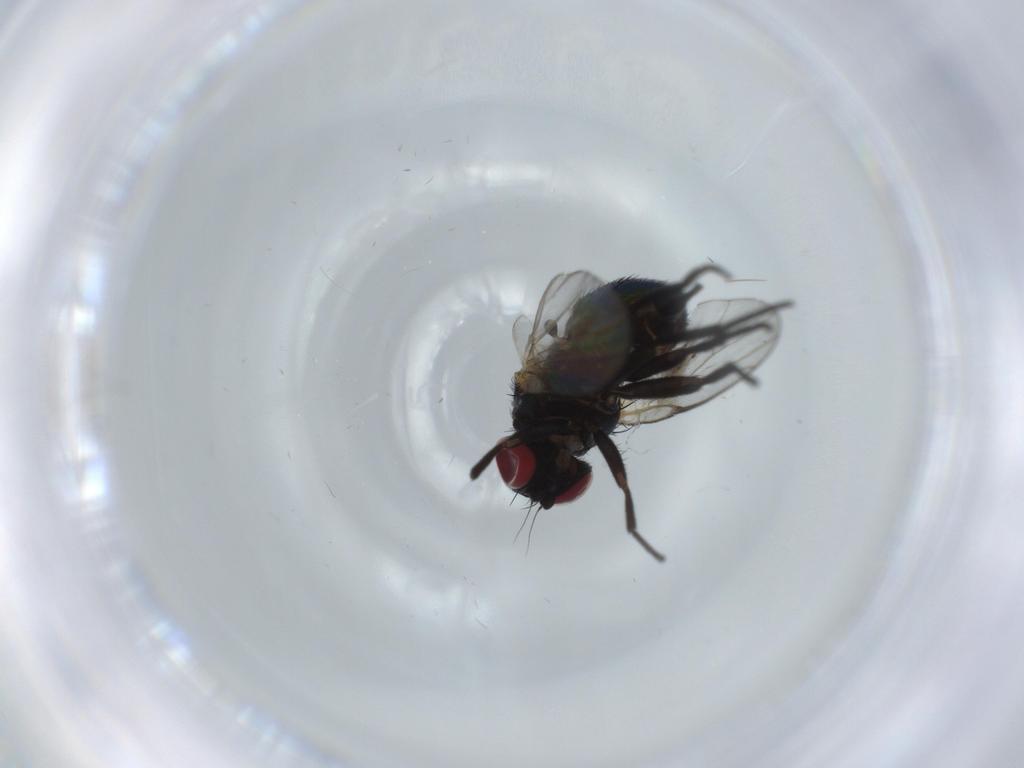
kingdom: Animalia
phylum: Arthropoda
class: Insecta
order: Diptera
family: Ceratopogonidae
